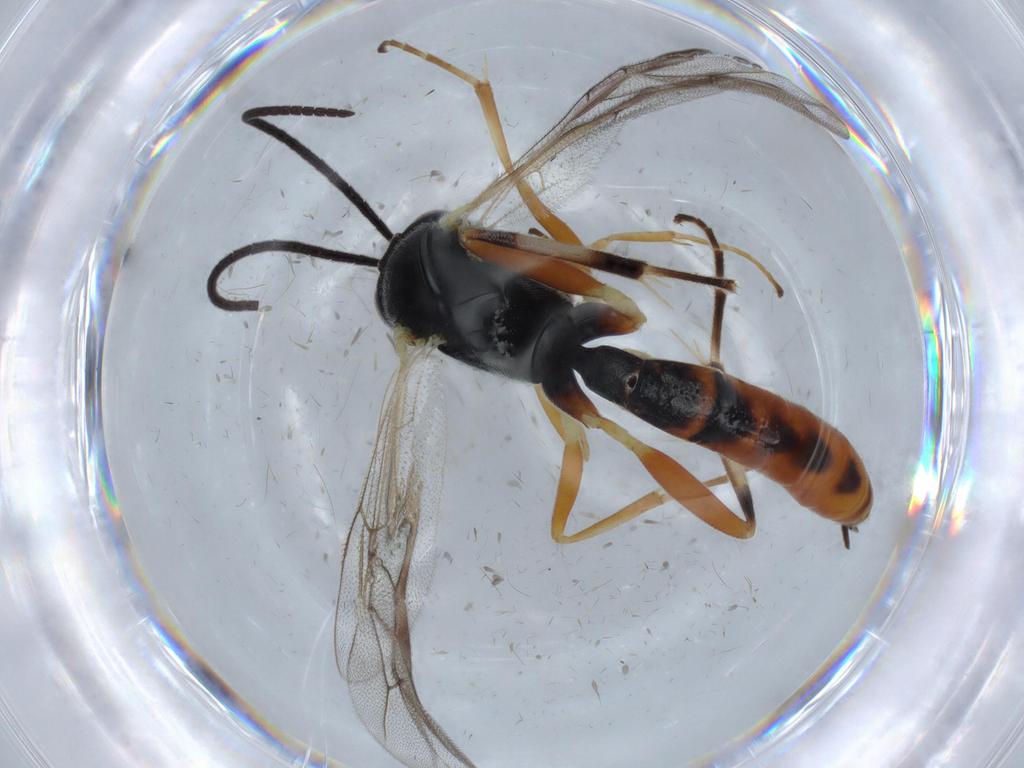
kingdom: Animalia
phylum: Arthropoda
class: Insecta
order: Hymenoptera
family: Ichneumonidae
